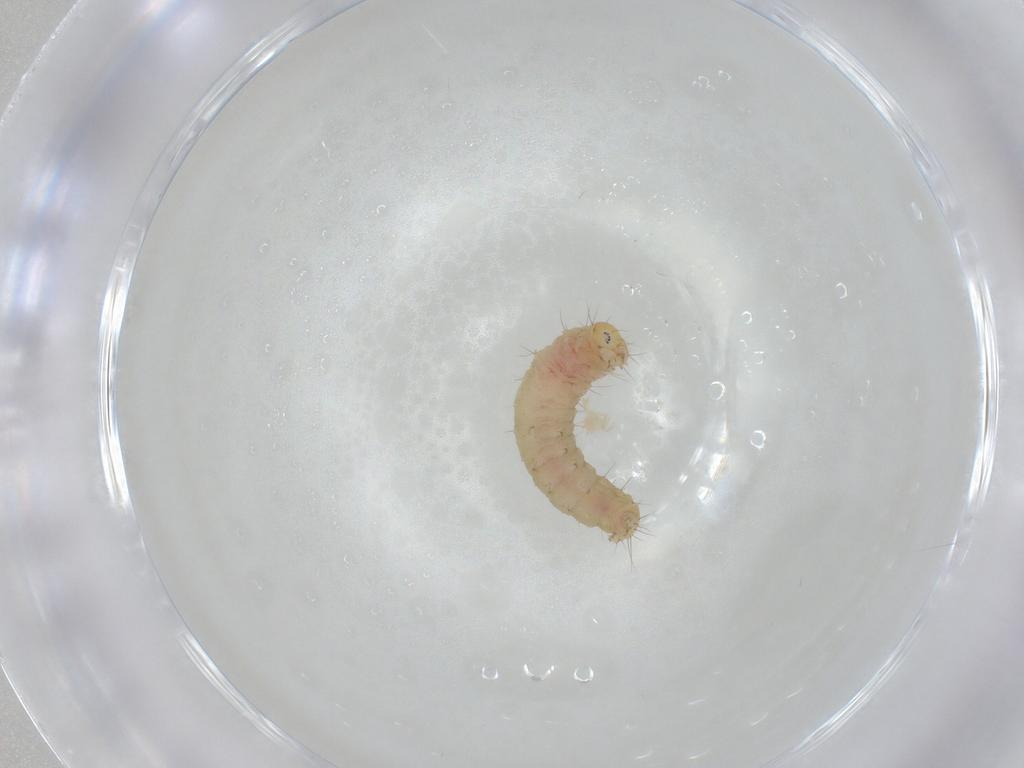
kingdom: Animalia
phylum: Arthropoda
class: Insecta
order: Lepidoptera
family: Gelechiidae
